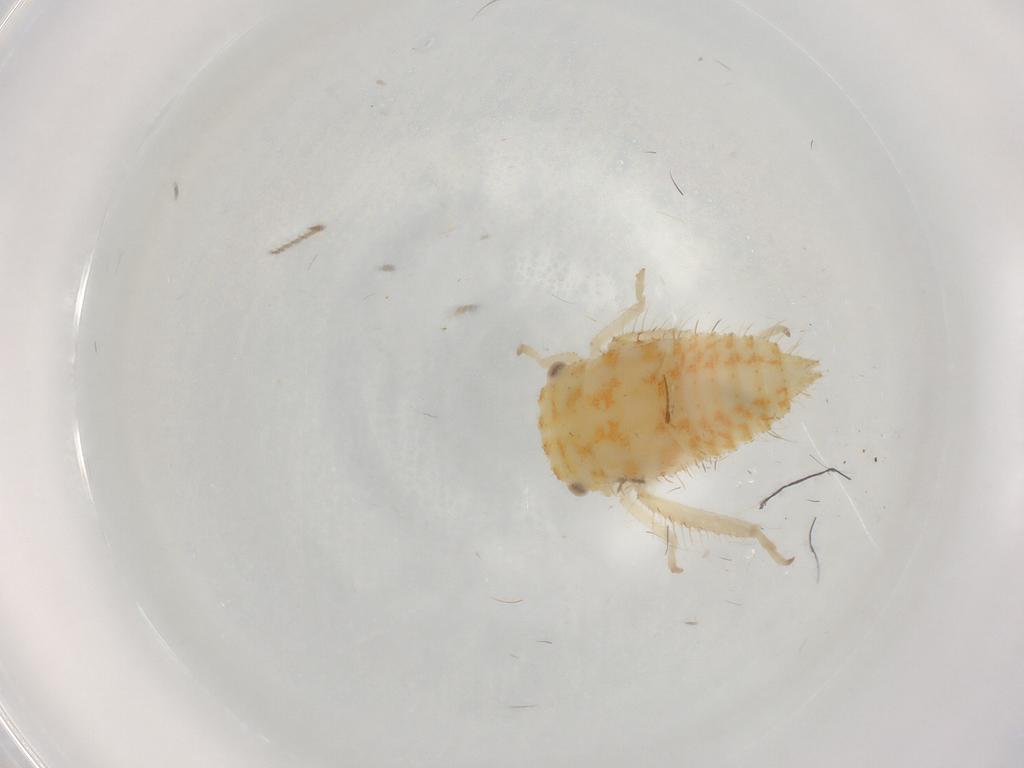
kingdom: Animalia
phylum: Arthropoda
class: Insecta
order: Hemiptera
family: Cicadellidae
